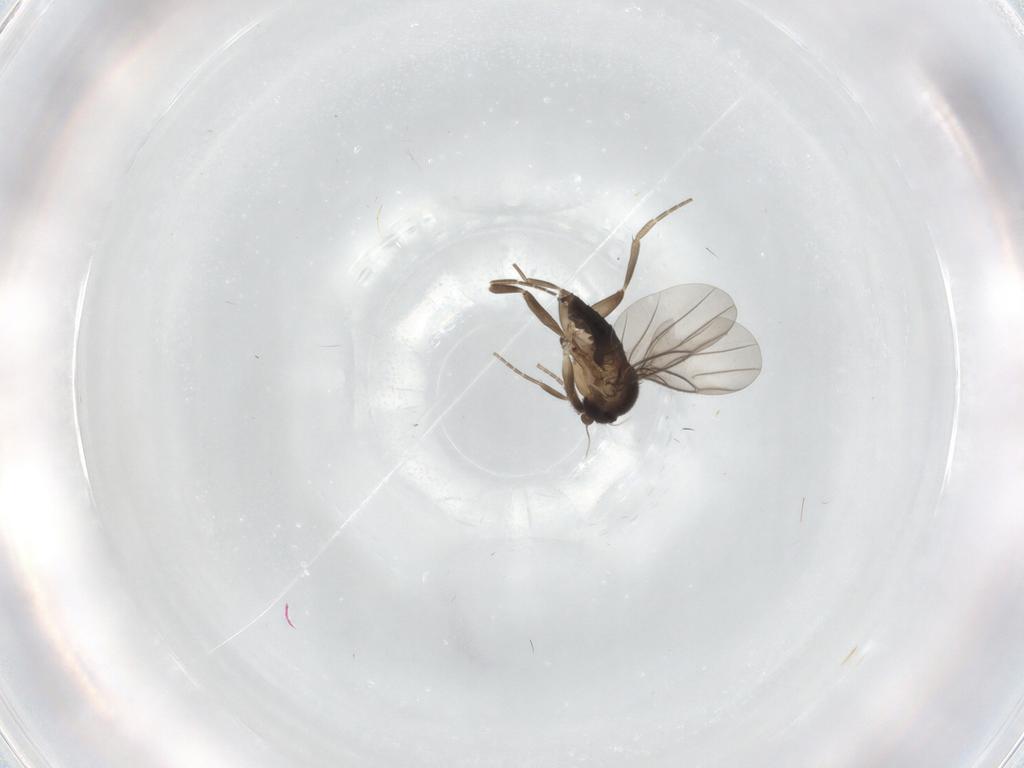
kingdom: Animalia
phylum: Arthropoda
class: Insecta
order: Diptera
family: Phoridae
